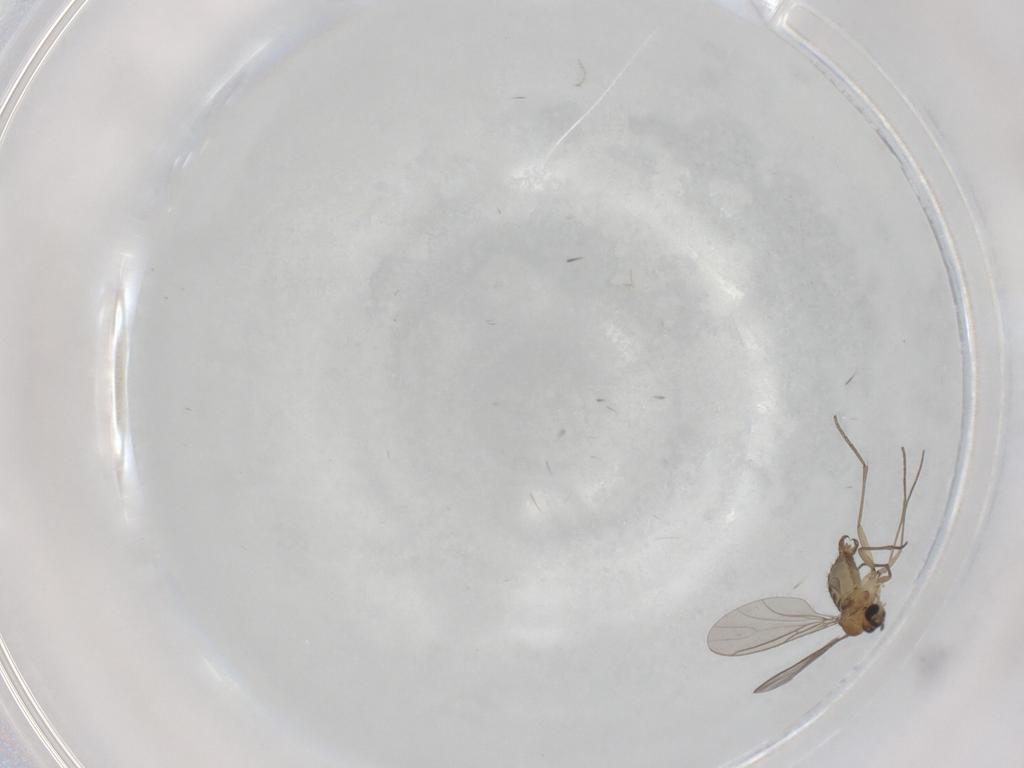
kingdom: Animalia
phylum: Arthropoda
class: Insecta
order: Diptera
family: Sciaridae
